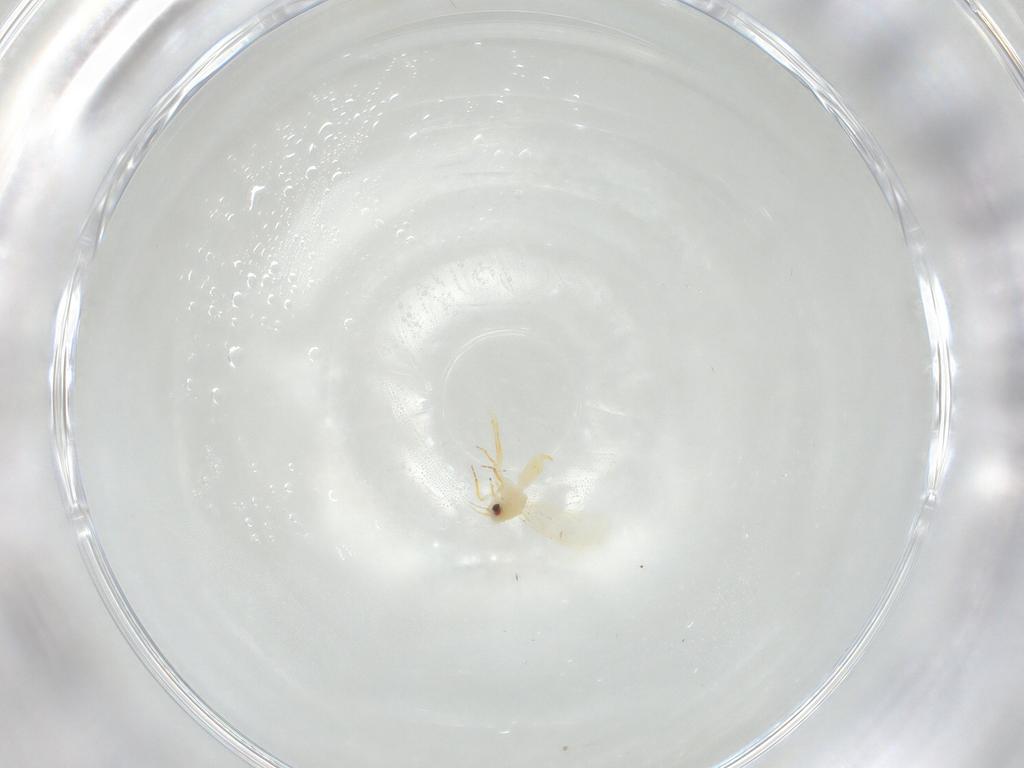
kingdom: Animalia
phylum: Arthropoda
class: Insecta
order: Hemiptera
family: Aleyrodidae
